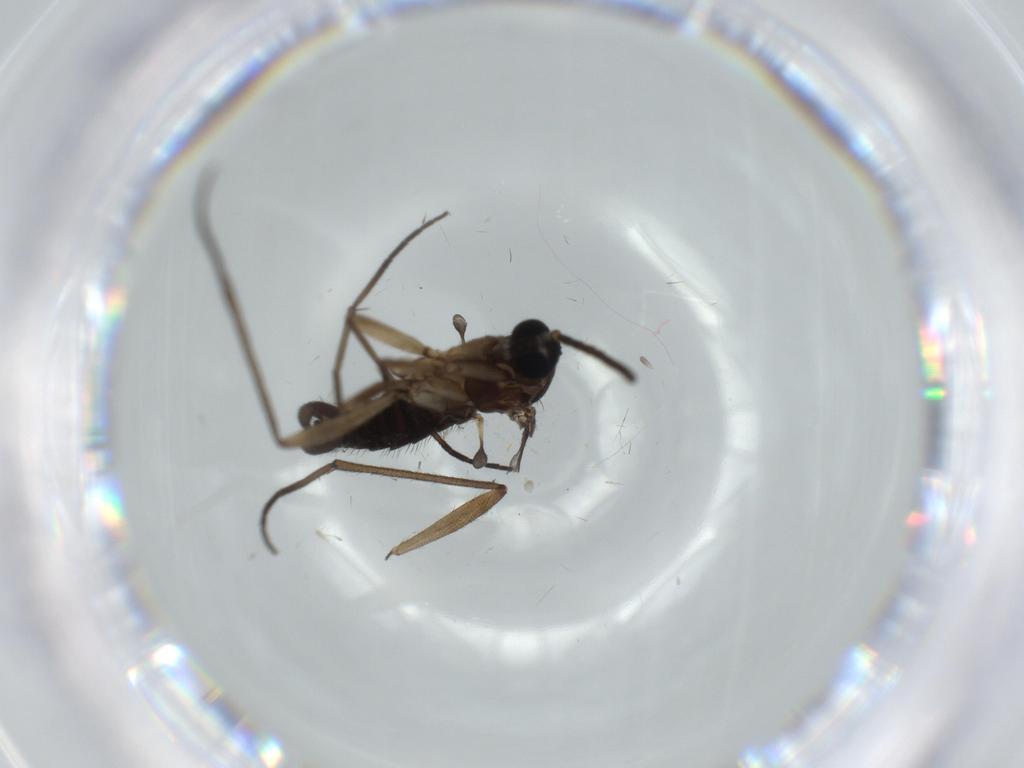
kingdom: Animalia
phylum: Arthropoda
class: Insecta
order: Diptera
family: Sciaridae
